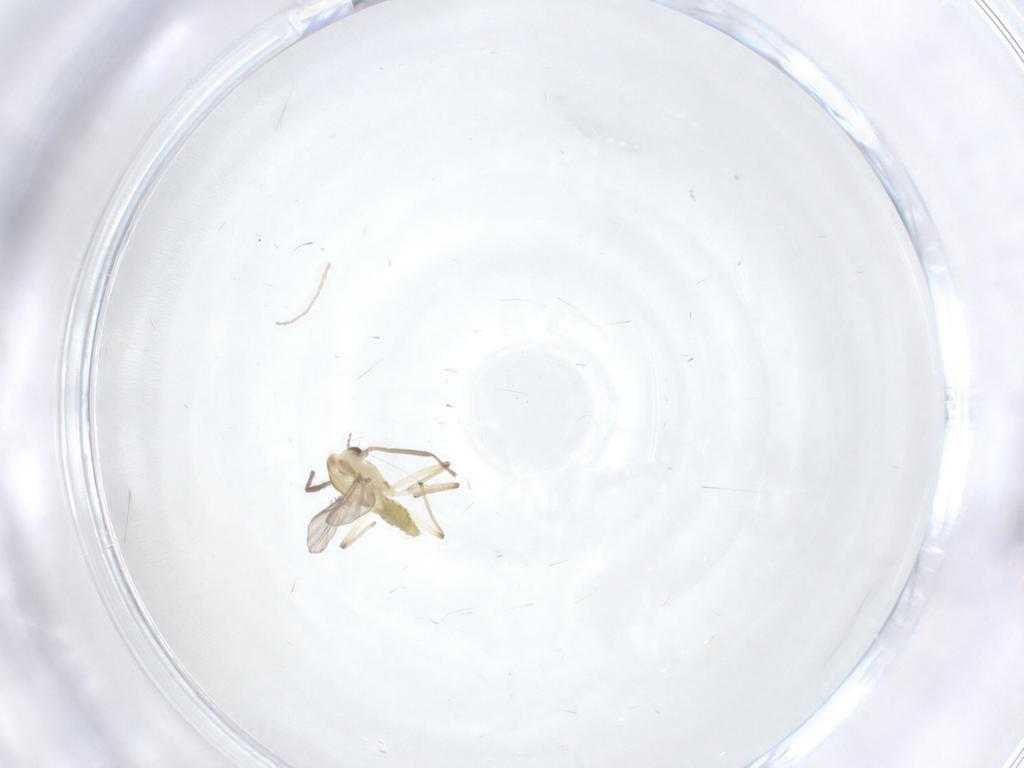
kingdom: Animalia
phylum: Arthropoda
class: Insecta
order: Diptera
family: Chironomidae
